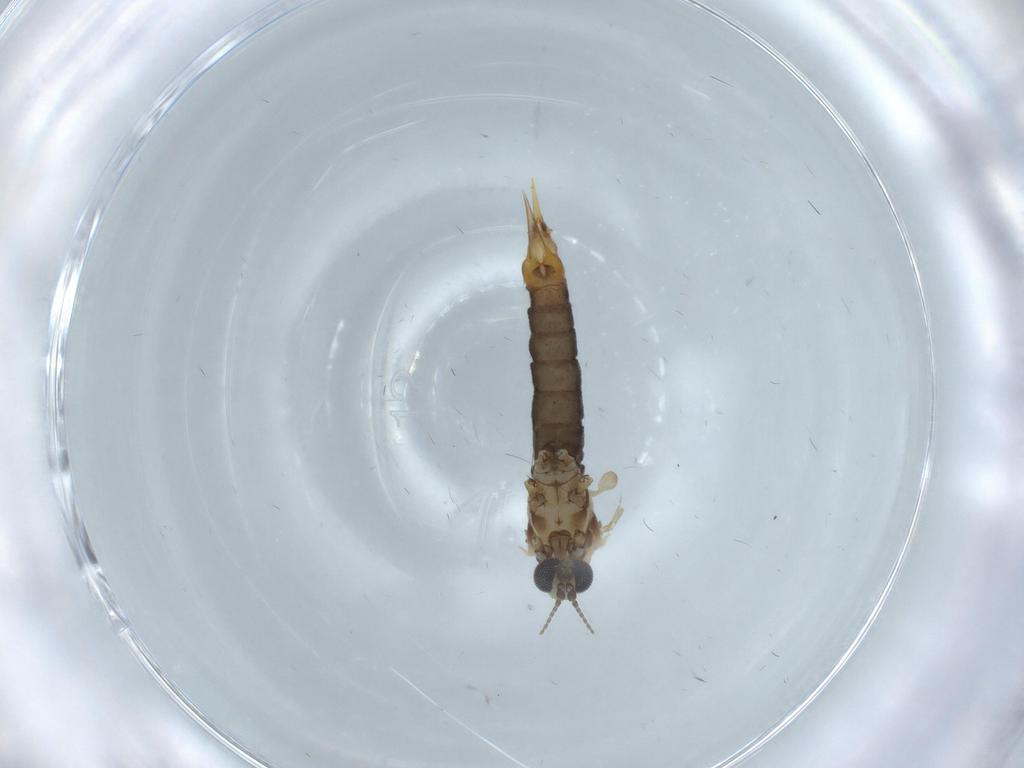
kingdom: Animalia
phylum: Arthropoda
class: Insecta
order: Diptera
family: Limoniidae
